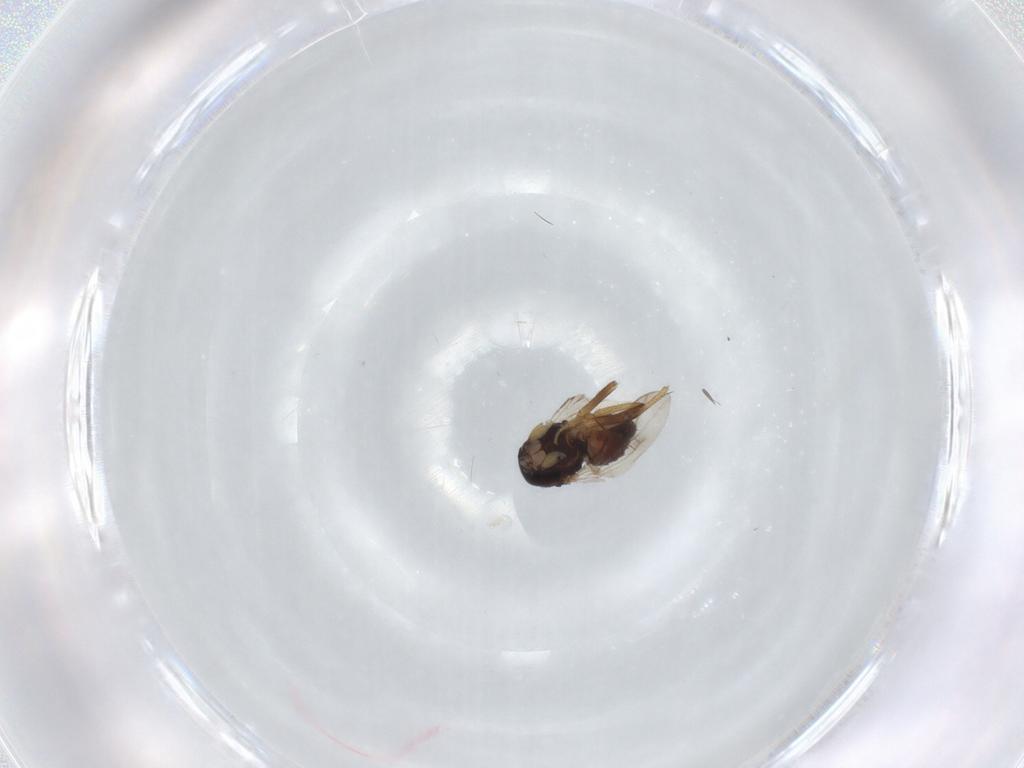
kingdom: Animalia
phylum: Arthropoda
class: Insecta
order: Diptera
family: Sphaeroceridae
